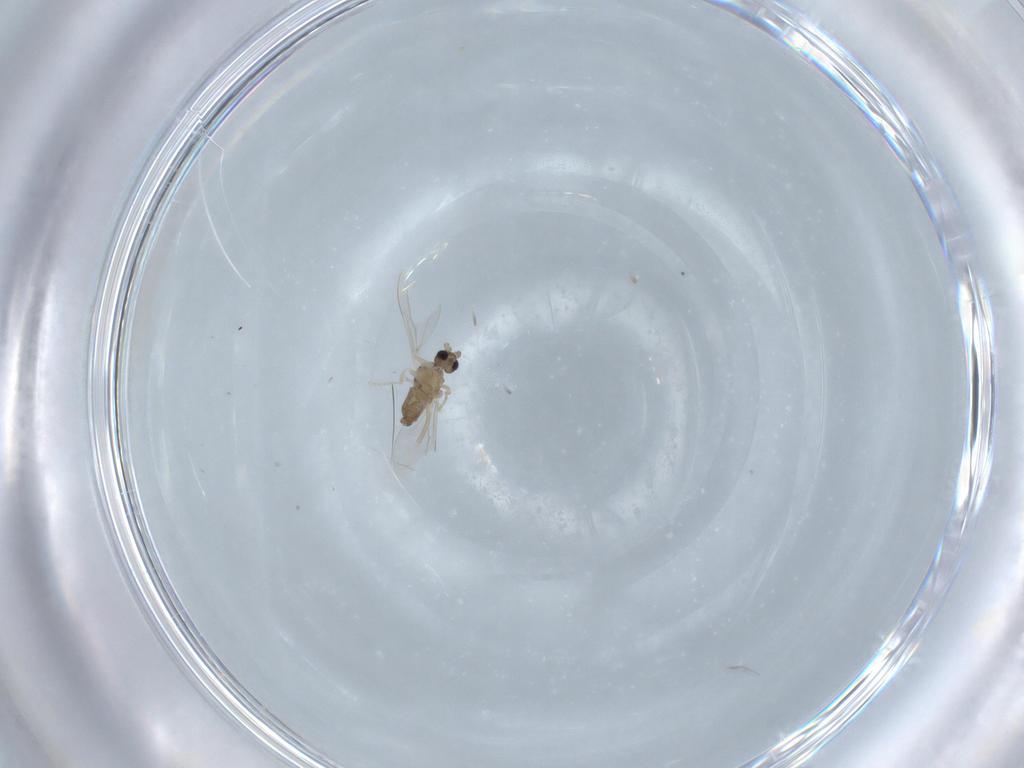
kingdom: Animalia
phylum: Arthropoda
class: Insecta
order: Diptera
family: Cecidomyiidae
